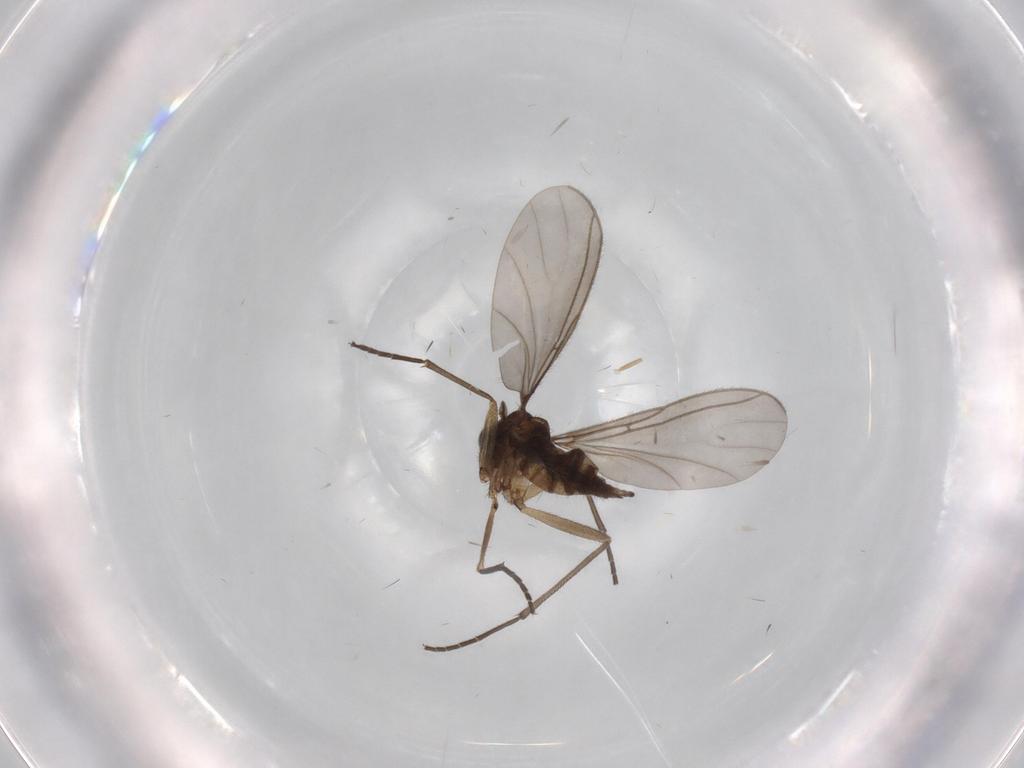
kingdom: Animalia
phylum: Arthropoda
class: Insecta
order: Diptera
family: Sciaridae
